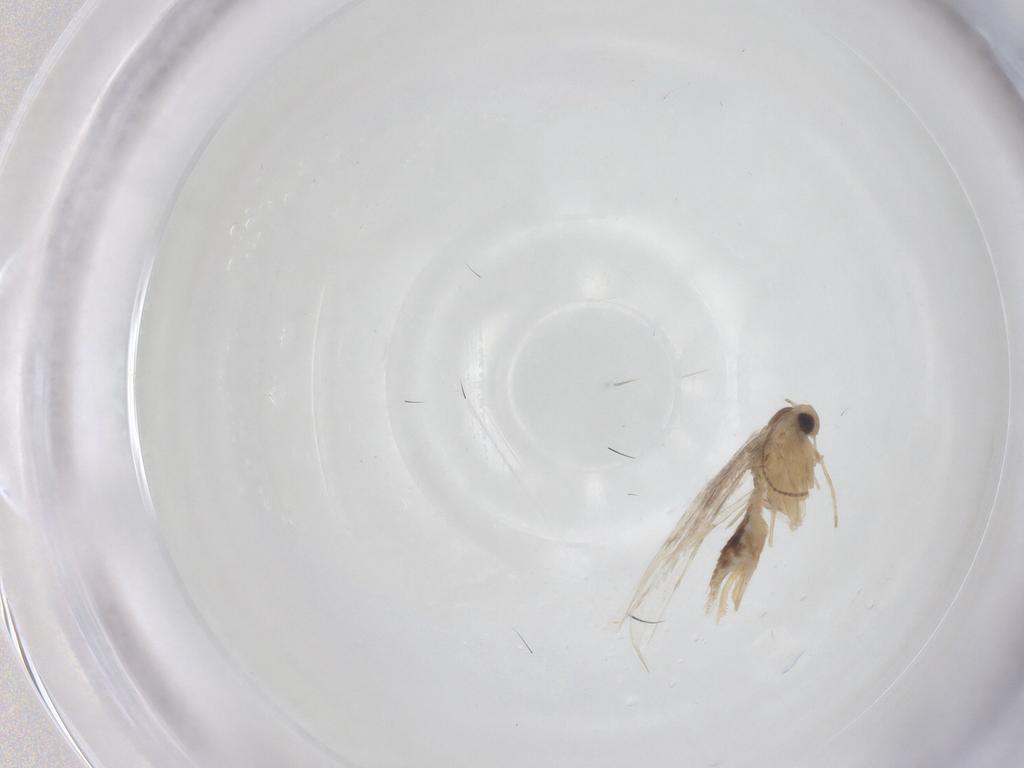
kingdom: Animalia
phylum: Arthropoda
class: Insecta
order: Lepidoptera
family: Gracillariidae
